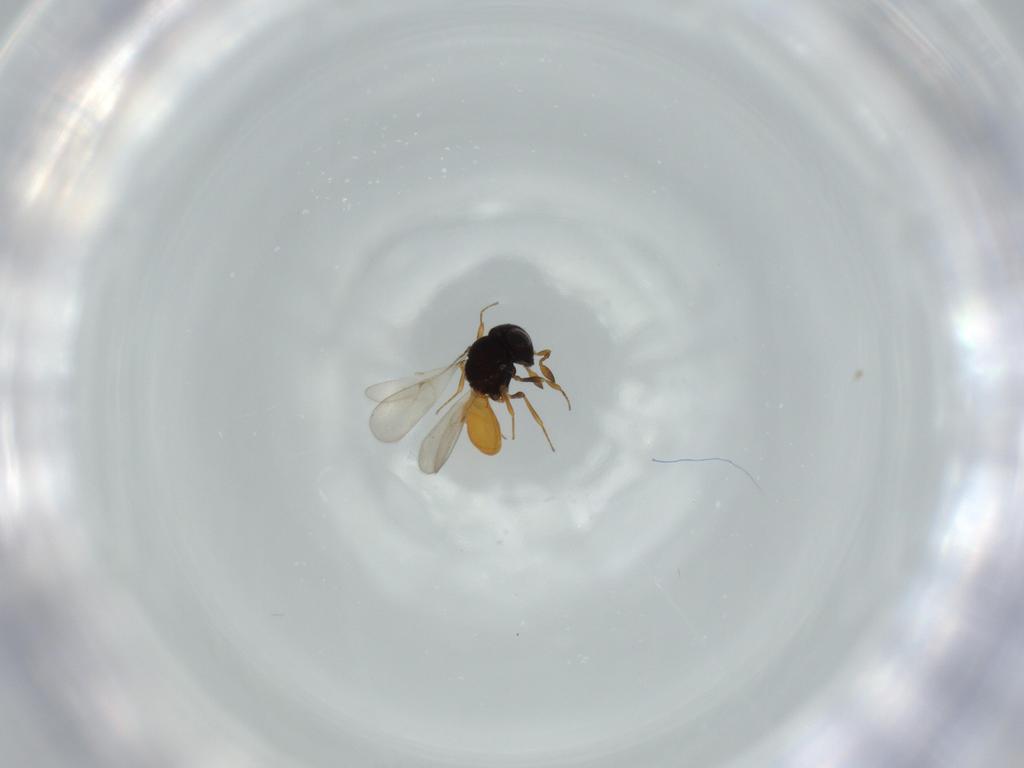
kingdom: Animalia
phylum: Arthropoda
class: Insecta
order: Hymenoptera
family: Scelionidae
